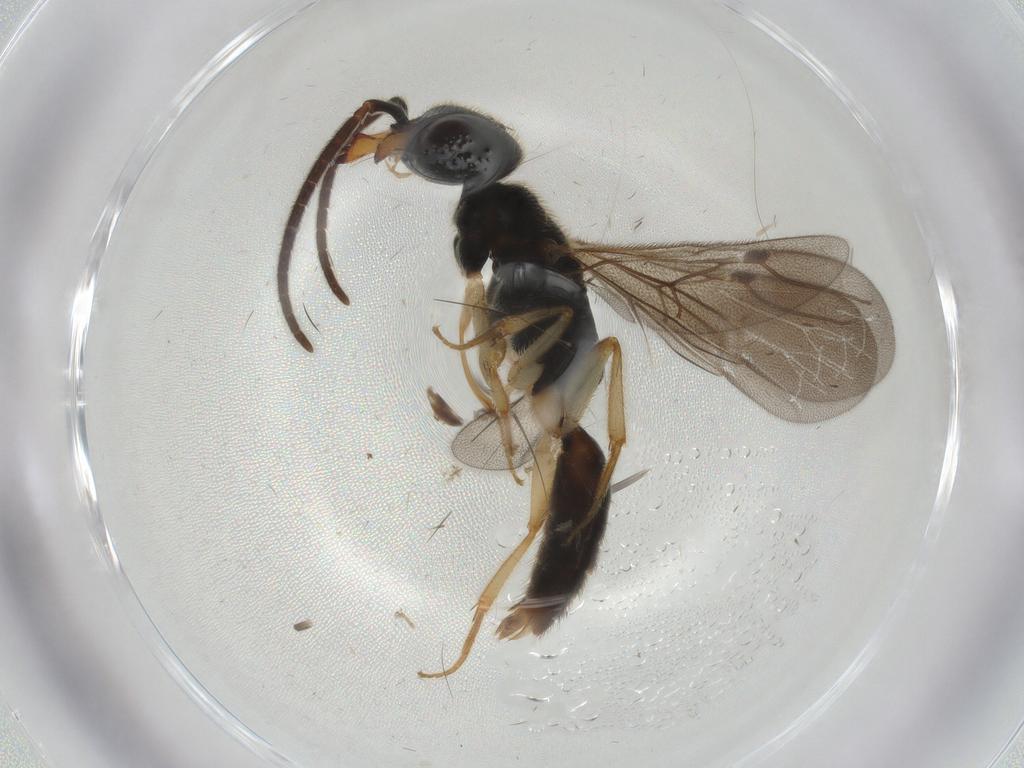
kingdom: Animalia
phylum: Arthropoda
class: Insecta
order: Hymenoptera
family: Bethylidae
